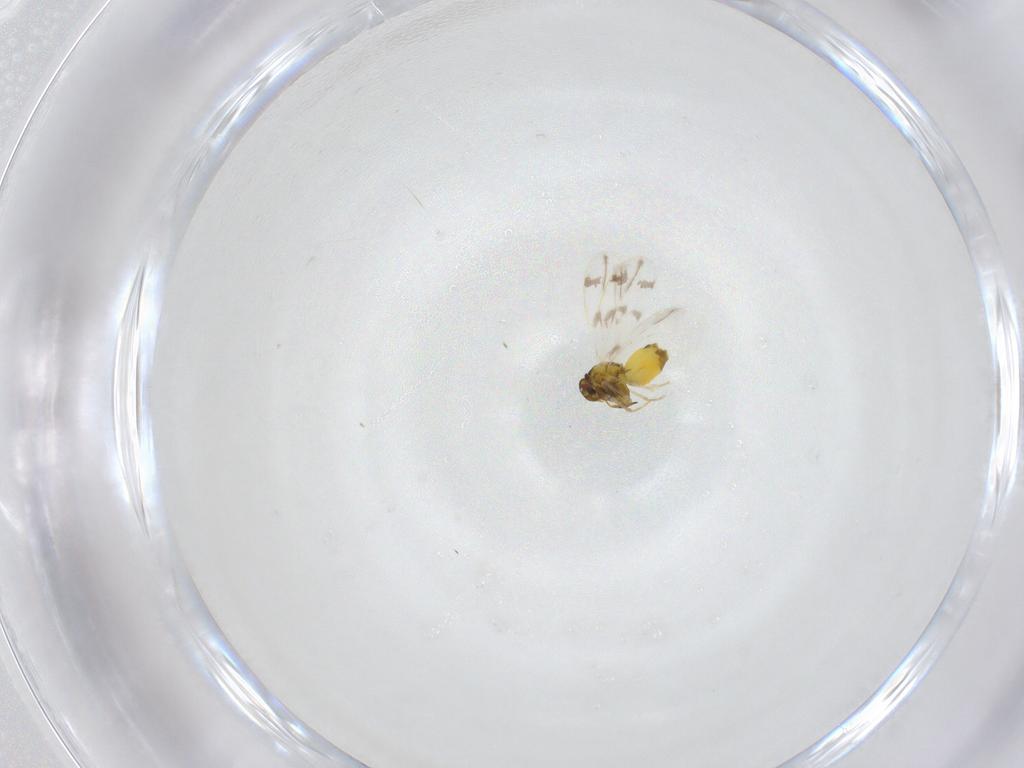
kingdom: Animalia
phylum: Arthropoda
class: Insecta
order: Hemiptera
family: Aleyrodidae
